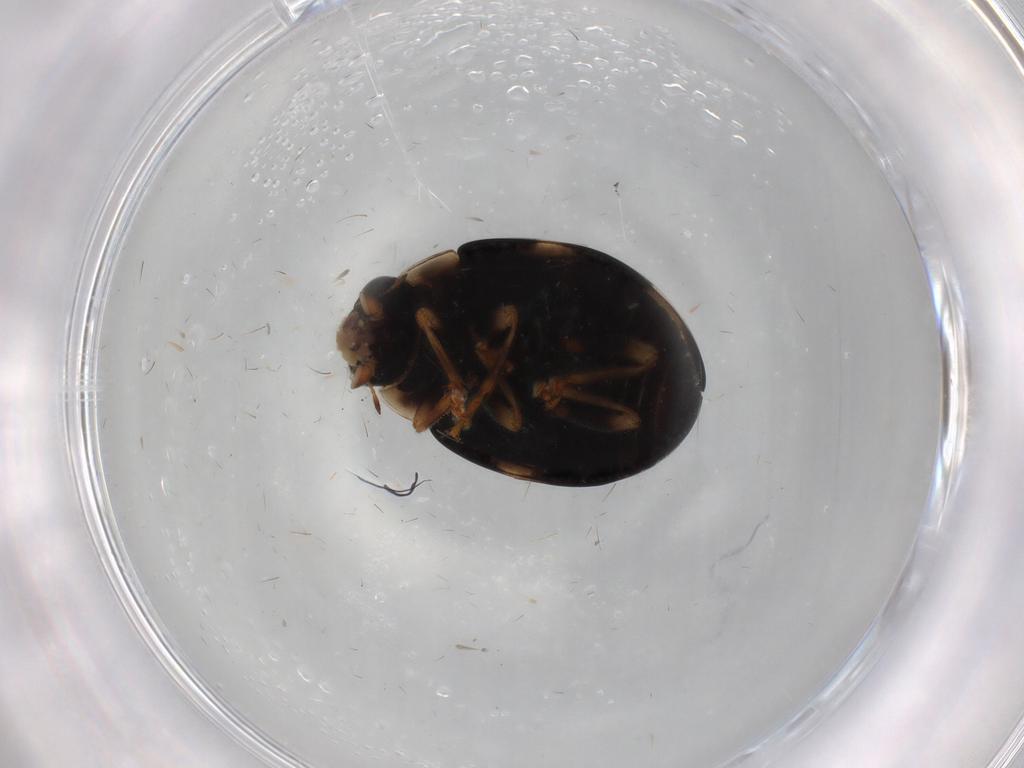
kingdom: Animalia
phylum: Arthropoda
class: Insecta
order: Coleoptera
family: Coccinellidae
